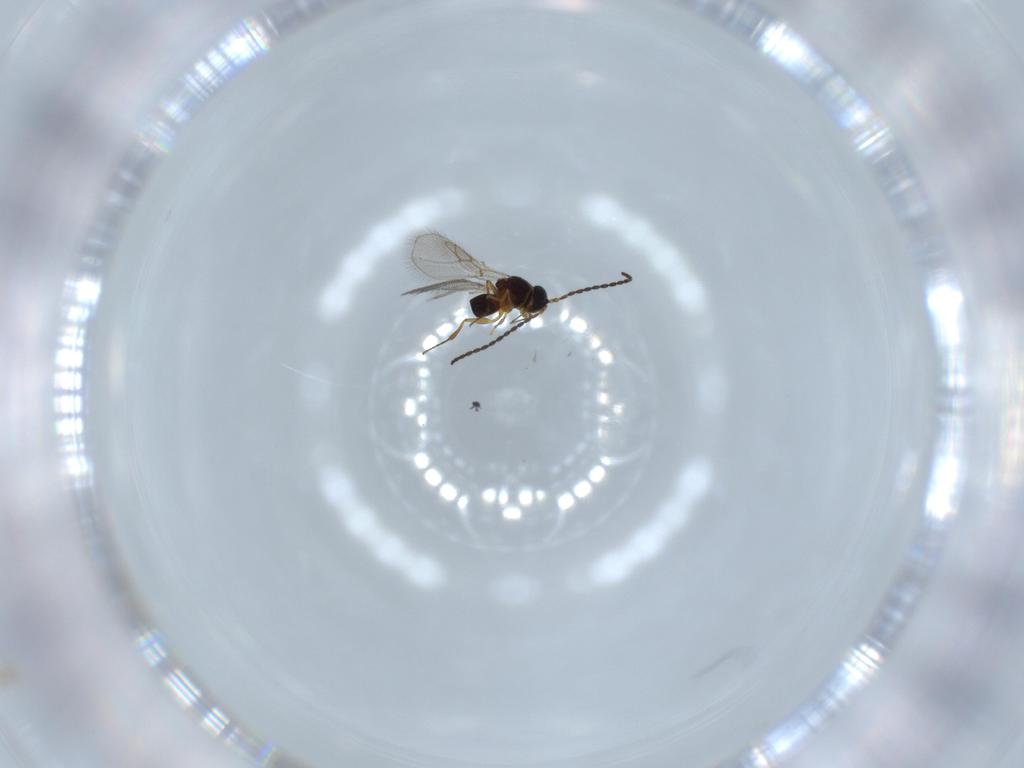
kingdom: Animalia
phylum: Arthropoda
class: Insecta
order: Hymenoptera
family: Figitidae
